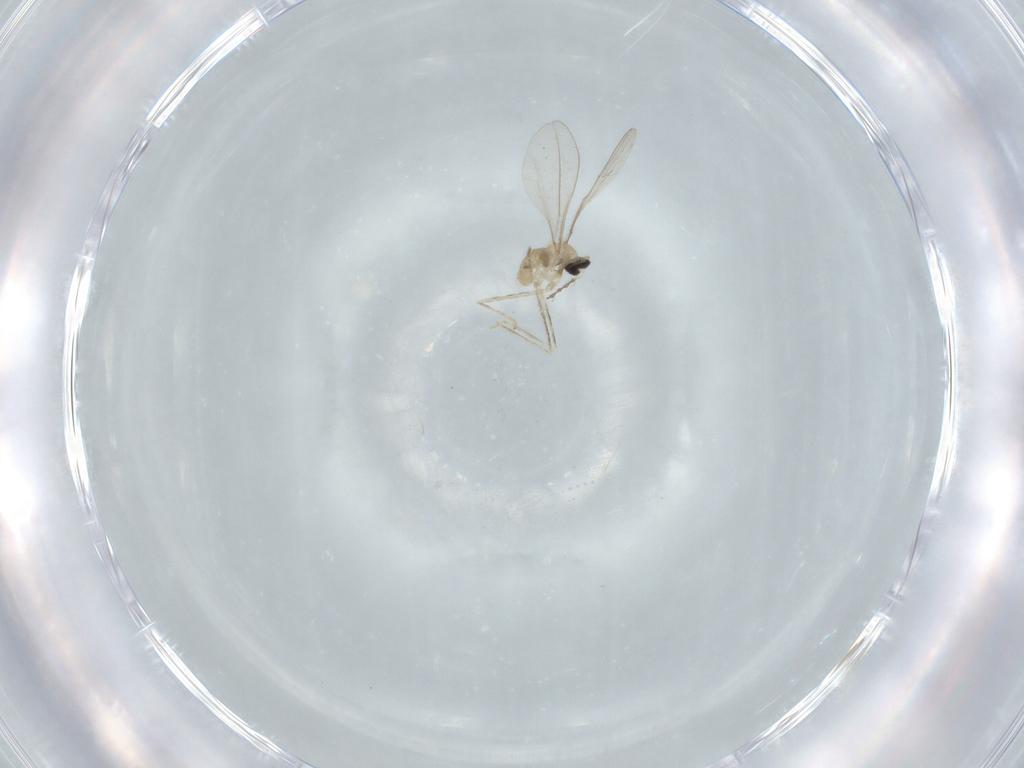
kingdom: Animalia
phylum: Arthropoda
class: Insecta
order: Diptera
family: Cecidomyiidae
